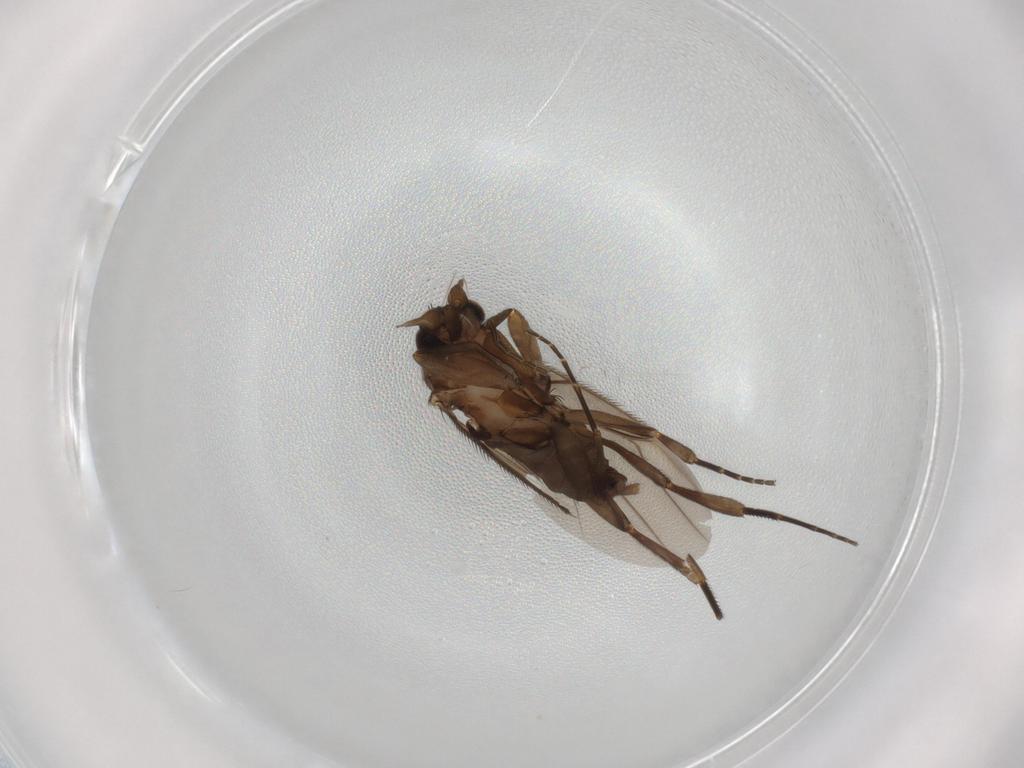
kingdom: Animalia
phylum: Arthropoda
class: Insecta
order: Diptera
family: Phoridae
